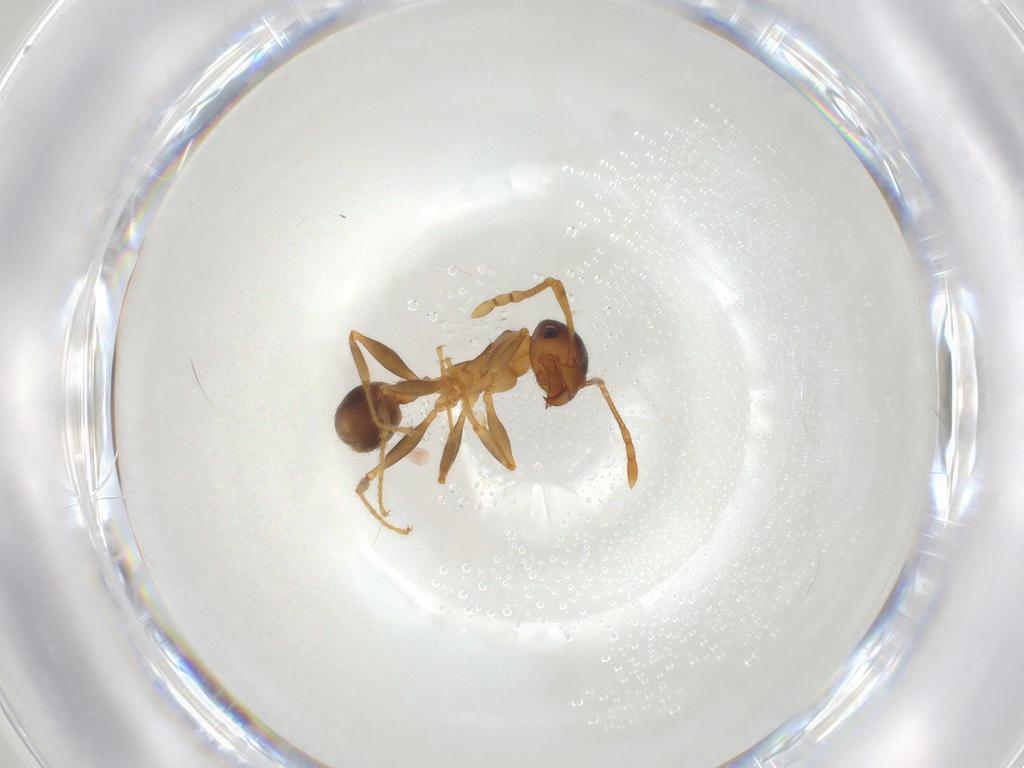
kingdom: Animalia
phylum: Arthropoda
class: Insecta
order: Hymenoptera
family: Formicidae
